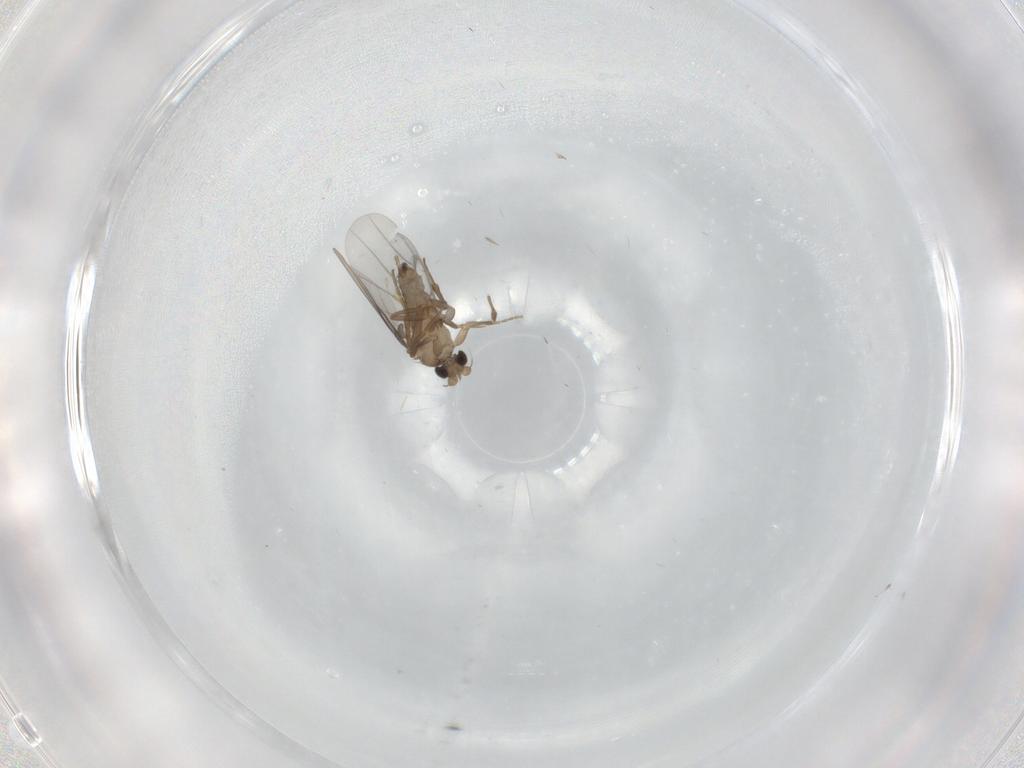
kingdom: Animalia
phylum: Arthropoda
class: Insecta
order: Diptera
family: Sciaridae
